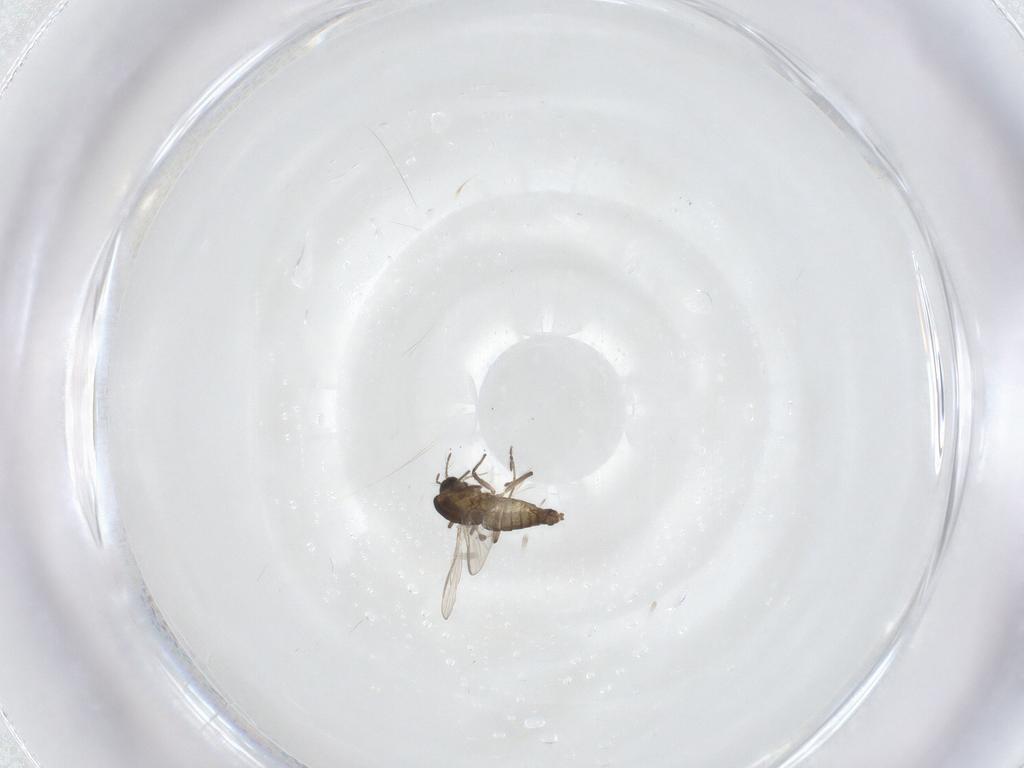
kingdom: Animalia
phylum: Arthropoda
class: Insecta
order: Diptera
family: Chironomidae
